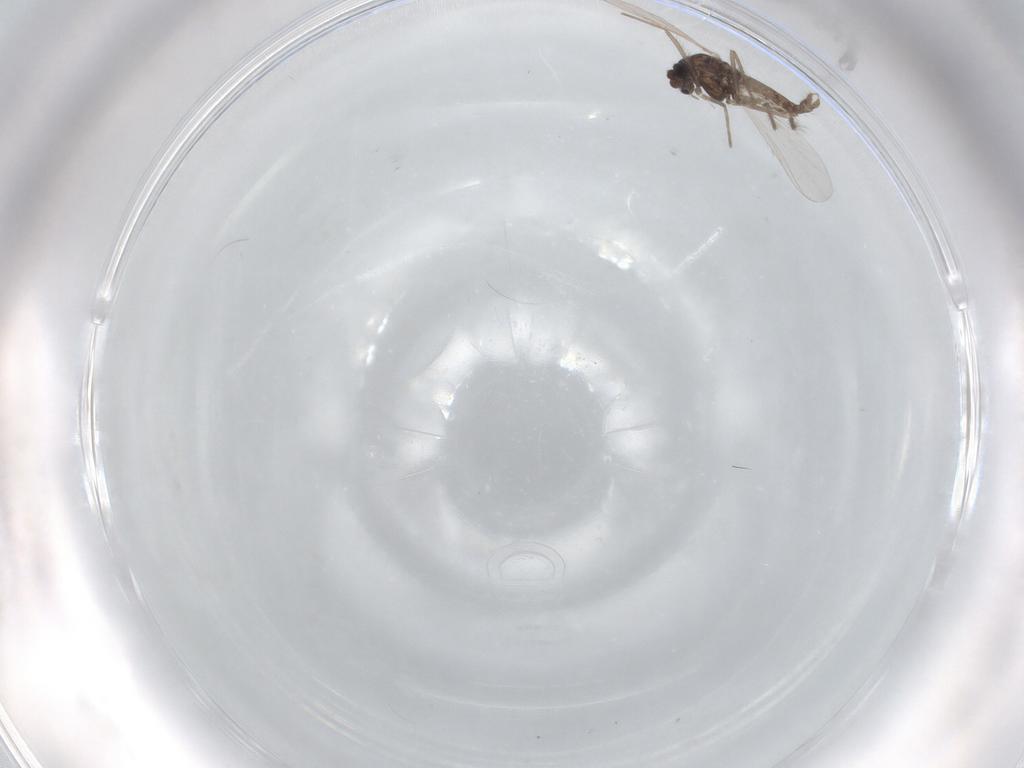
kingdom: Animalia
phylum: Arthropoda
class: Insecta
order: Diptera
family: Chironomidae
